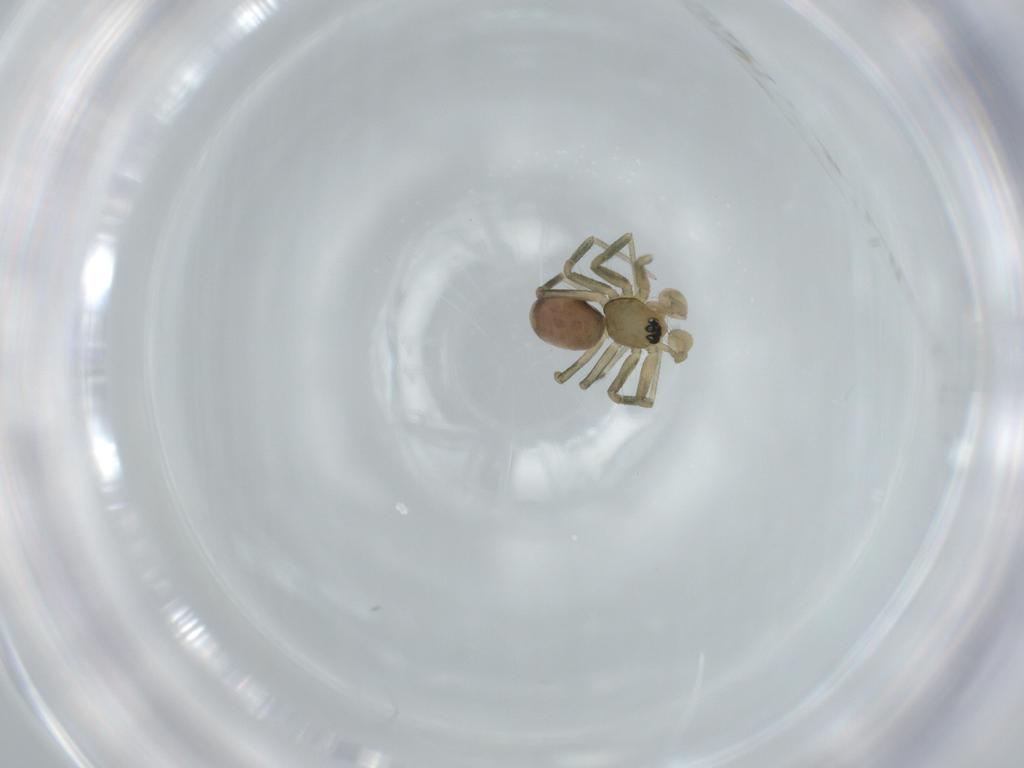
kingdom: Animalia
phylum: Arthropoda
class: Arachnida
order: Araneae
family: Linyphiidae
